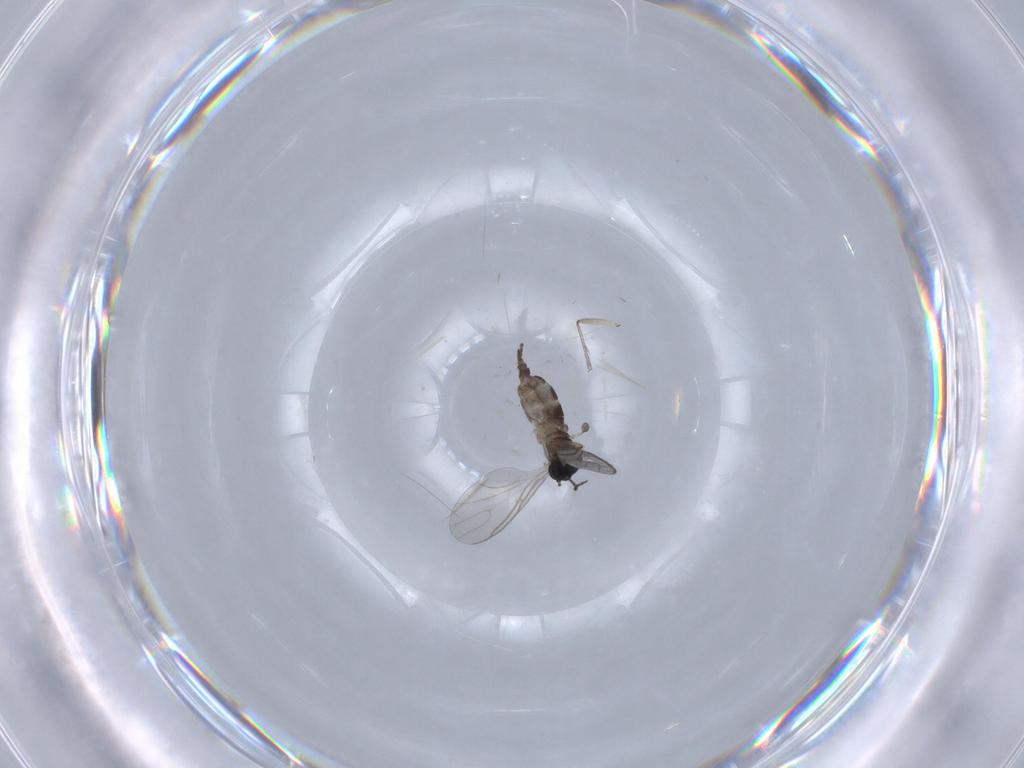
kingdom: Animalia
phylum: Arthropoda
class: Insecta
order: Diptera
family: Sciaridae
